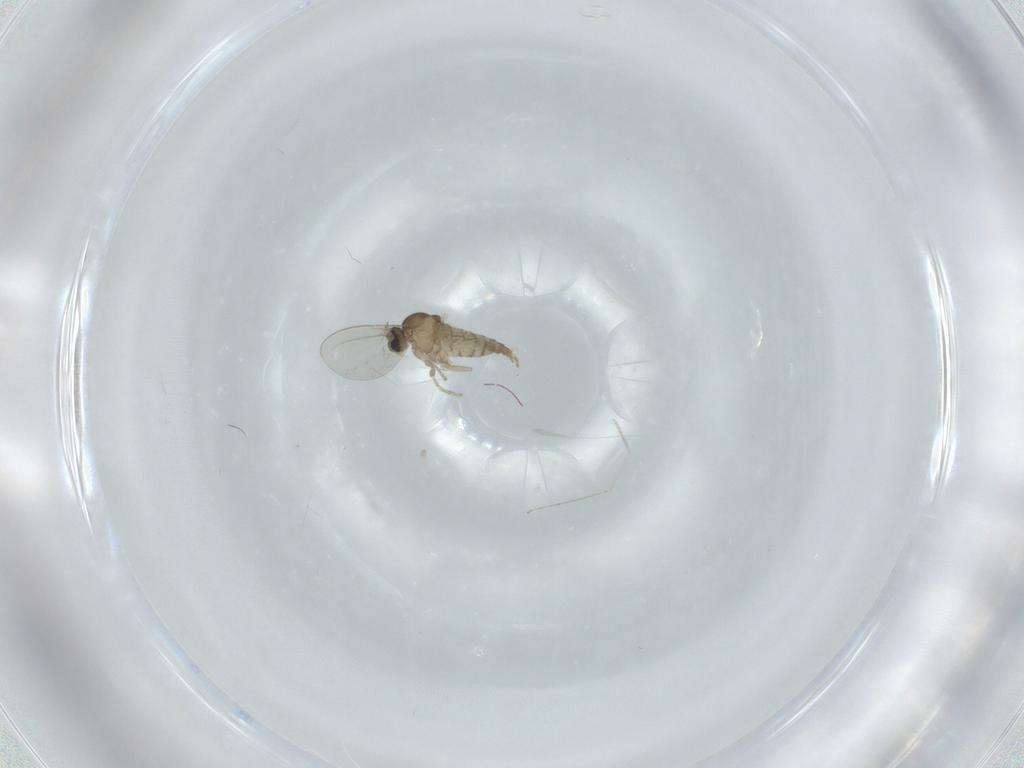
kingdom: Animalia
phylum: Arthropoda
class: Insecta
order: Diptera
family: Cecidomyiidae
